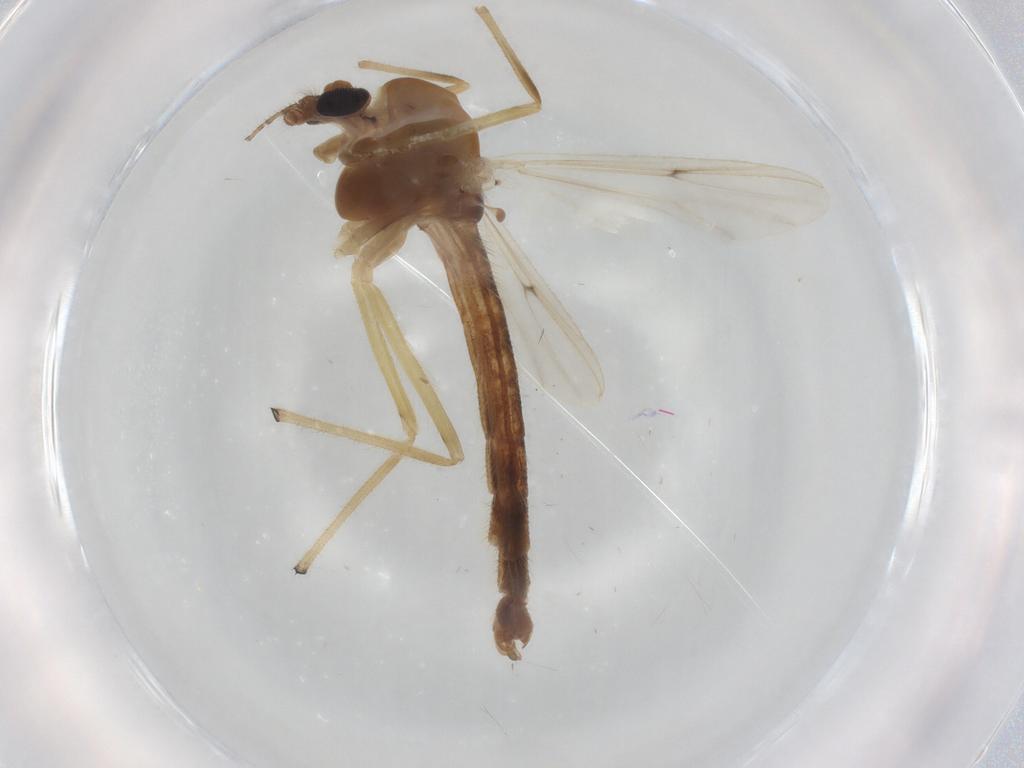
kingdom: Animalia
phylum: Arthropoda
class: Insecta
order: Diptera
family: Chironomidae
